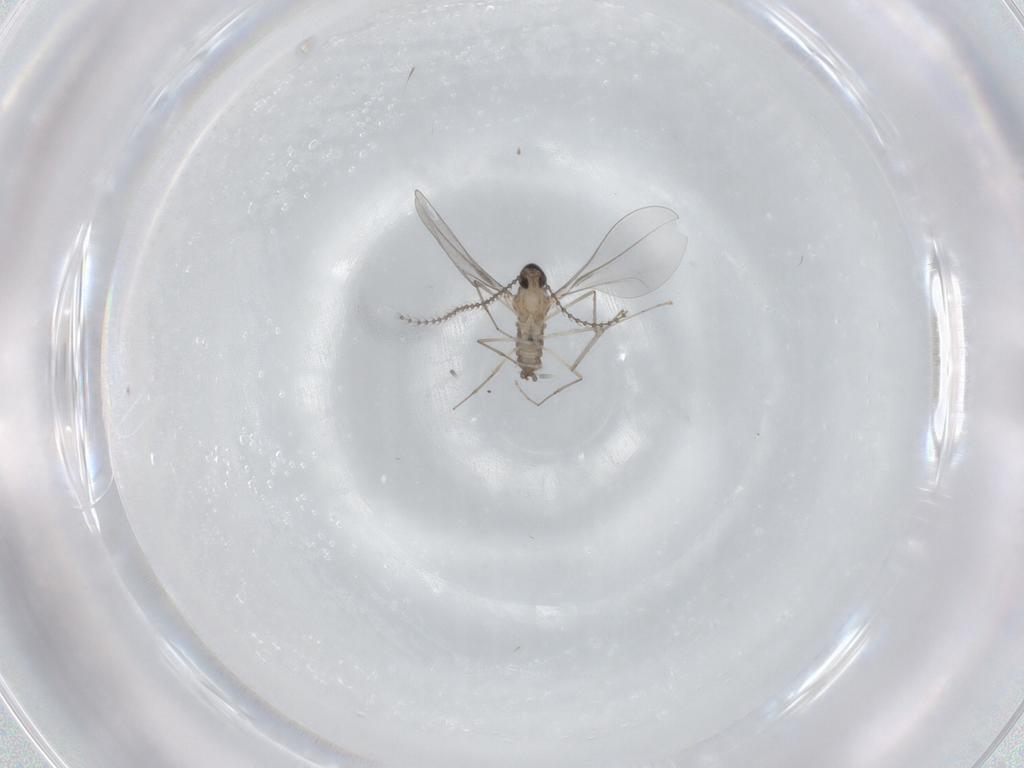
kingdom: Animalia
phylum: Arthropoda
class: Insecta
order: Diptera
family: Cecidomyiidae
